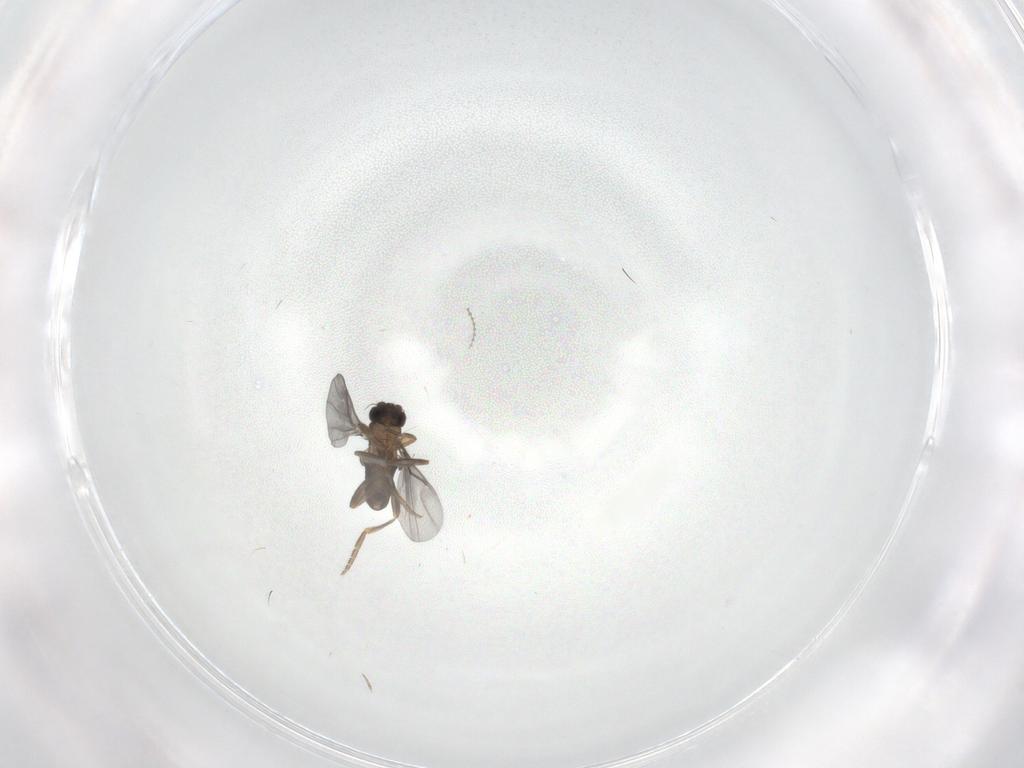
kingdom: Animalia
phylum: Arthropoda
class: Insecta
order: Diptera
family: Cecidomyiidae
